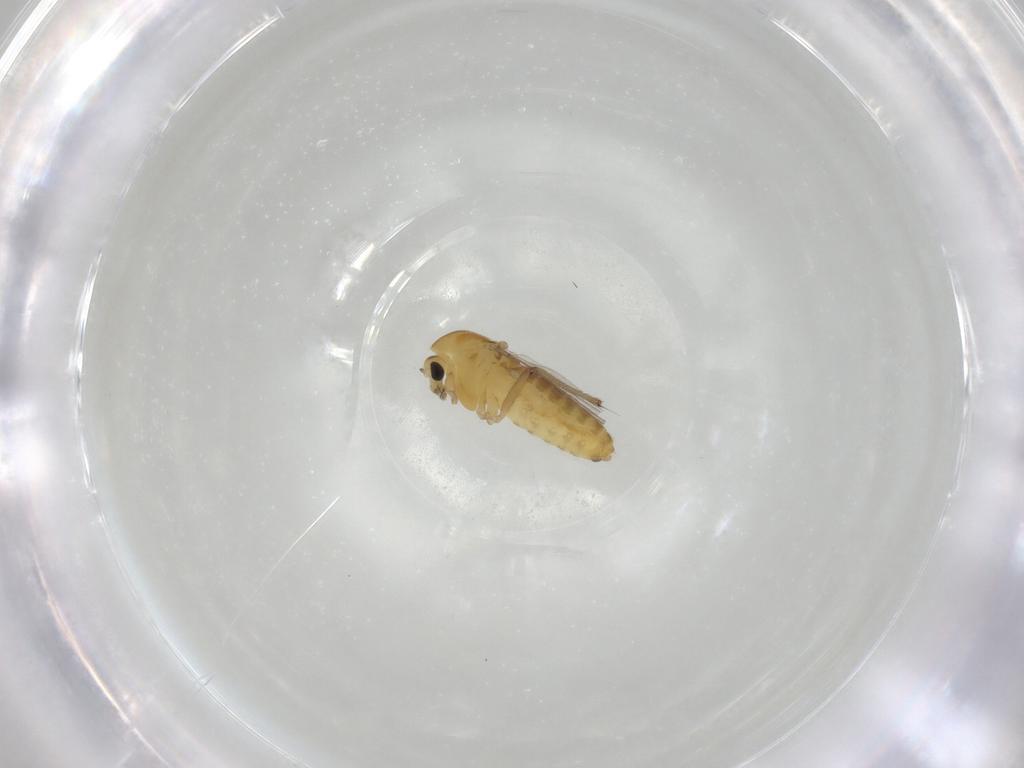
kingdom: Animalia
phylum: Arthropoda
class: Insecta
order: Diptera
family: Chironomidae
